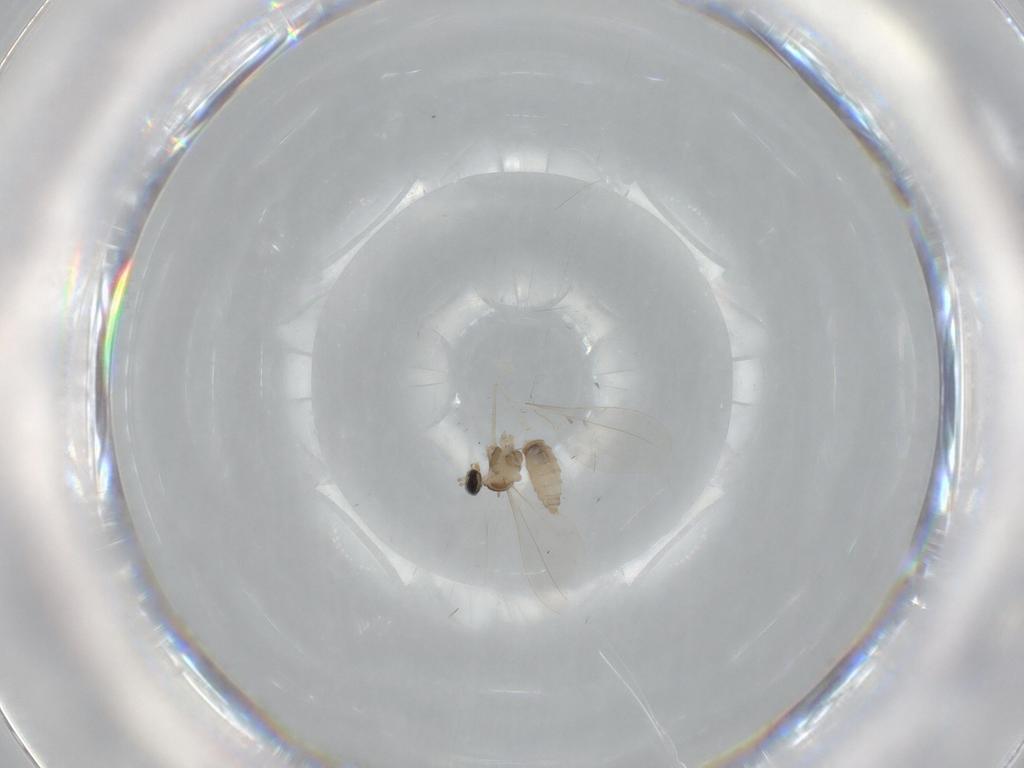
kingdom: Animalia
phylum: Arthropoda
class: Insecta
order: Diptera
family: Cecidomyiidae
